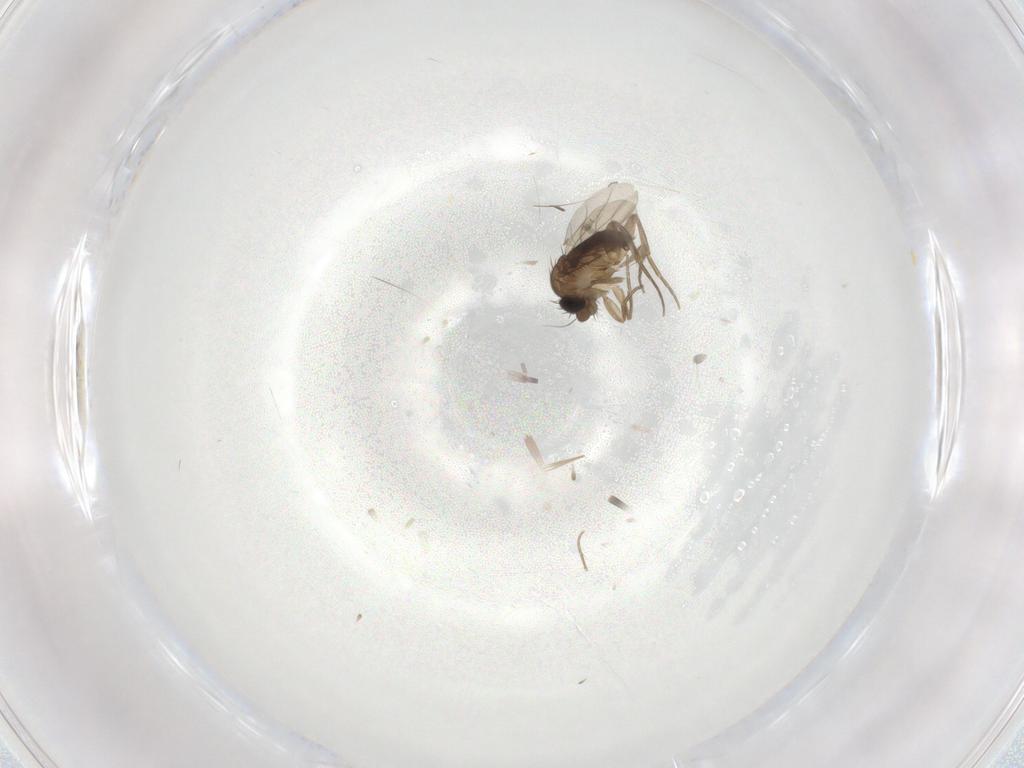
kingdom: Animalia
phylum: Arthropoda
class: Insecta
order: Diptera
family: Phoridae
